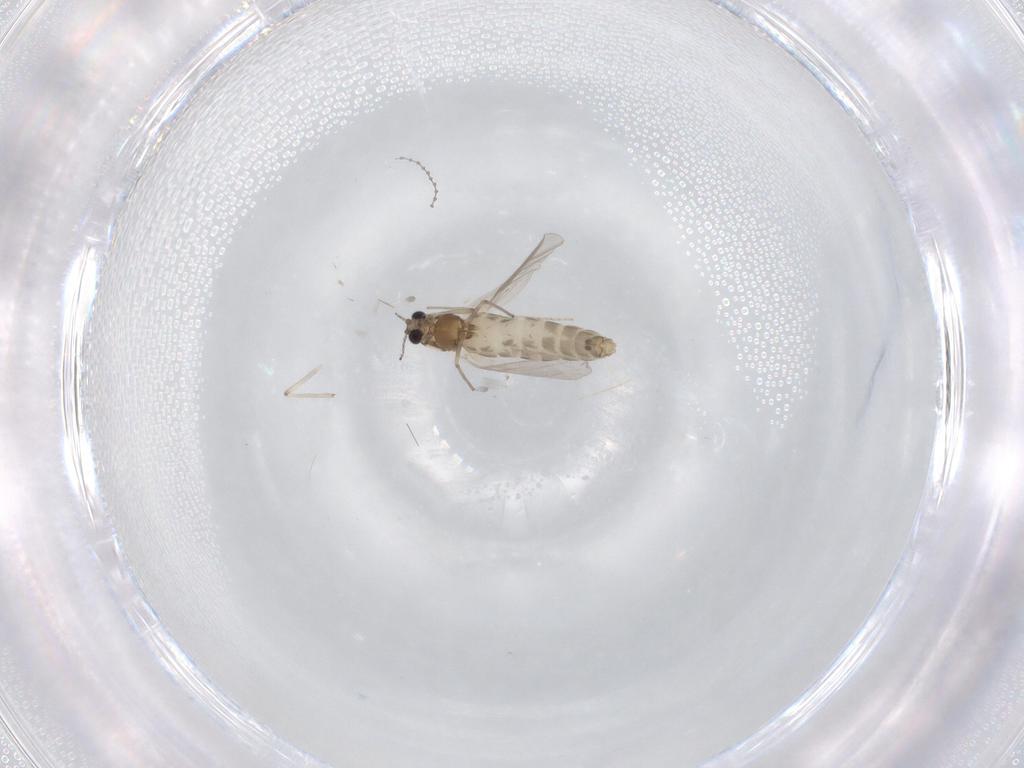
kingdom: Animalia
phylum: Arthropoda
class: Insecta
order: Diptera
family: Chironomidae
